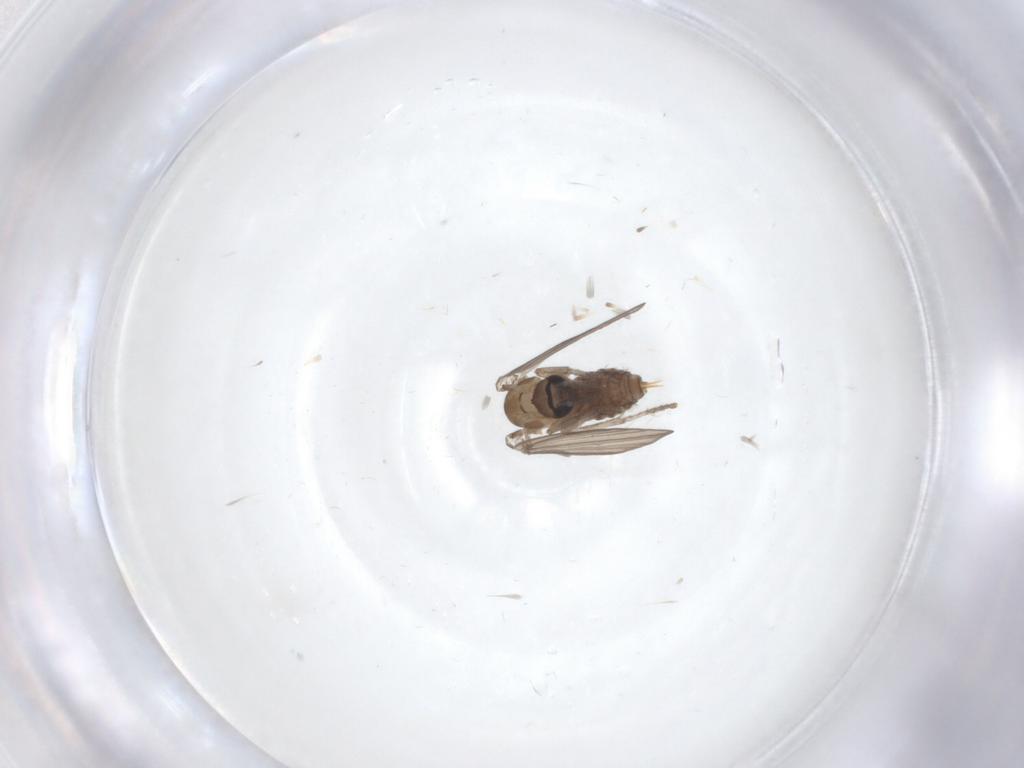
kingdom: Animalia
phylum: Arthropoda
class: Insecta
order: Diptera
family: Psychodidae
